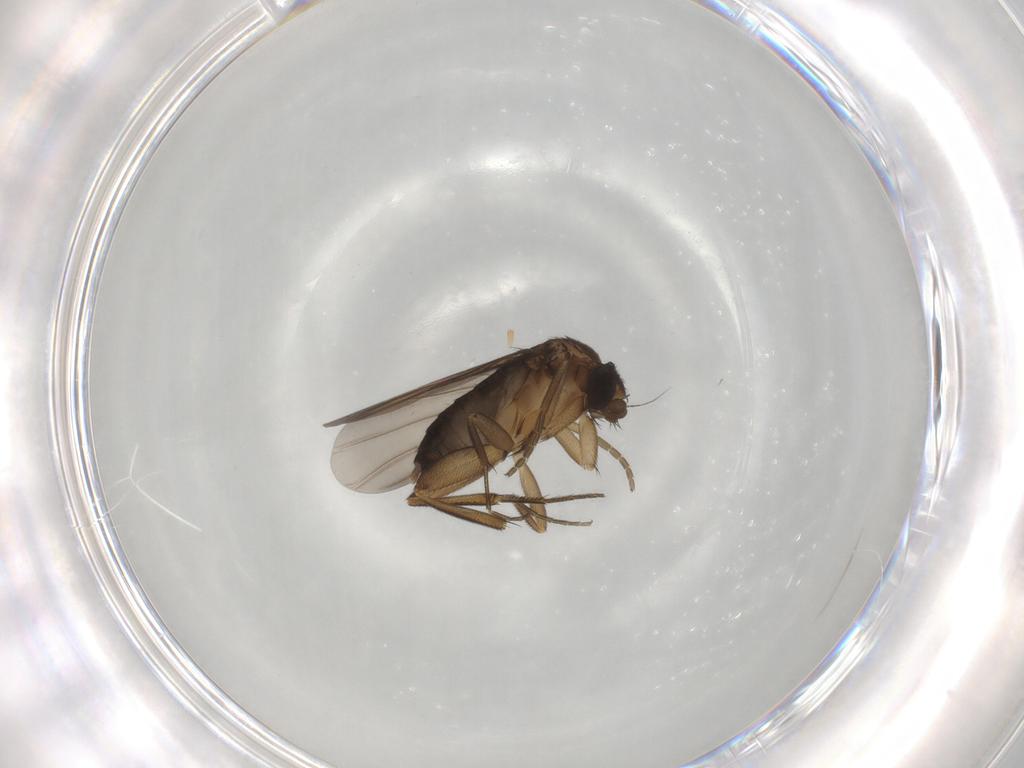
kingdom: Animalia
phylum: Arthropoda
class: Insecta
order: Diptera
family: Phoridae
